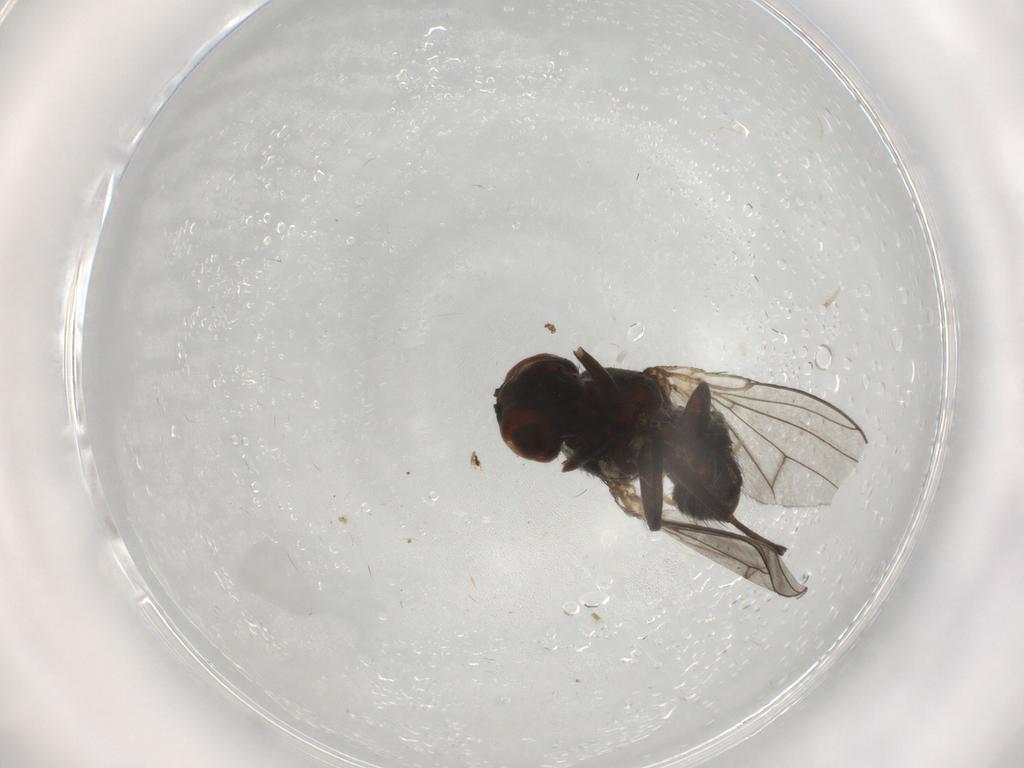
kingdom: Animalia
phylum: Arthropoda
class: Insecta
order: Diptera
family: Ephydridae
